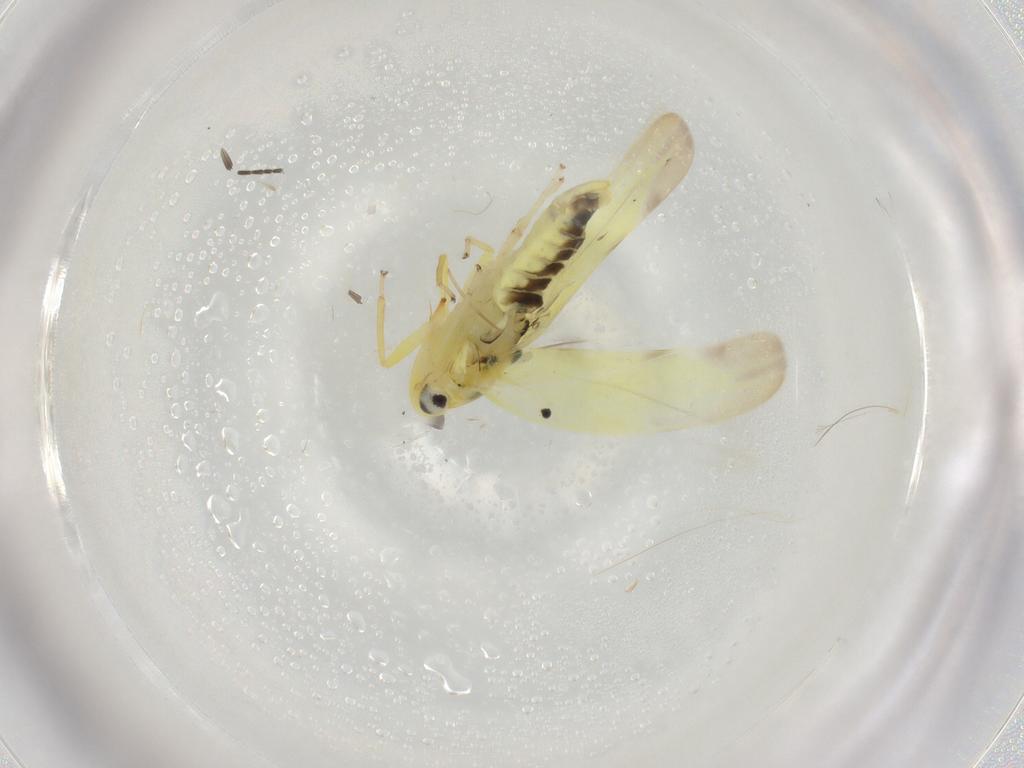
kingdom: Animalia
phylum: Arthropoda
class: Insecta
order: Hemiptera
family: Cicadellidae
